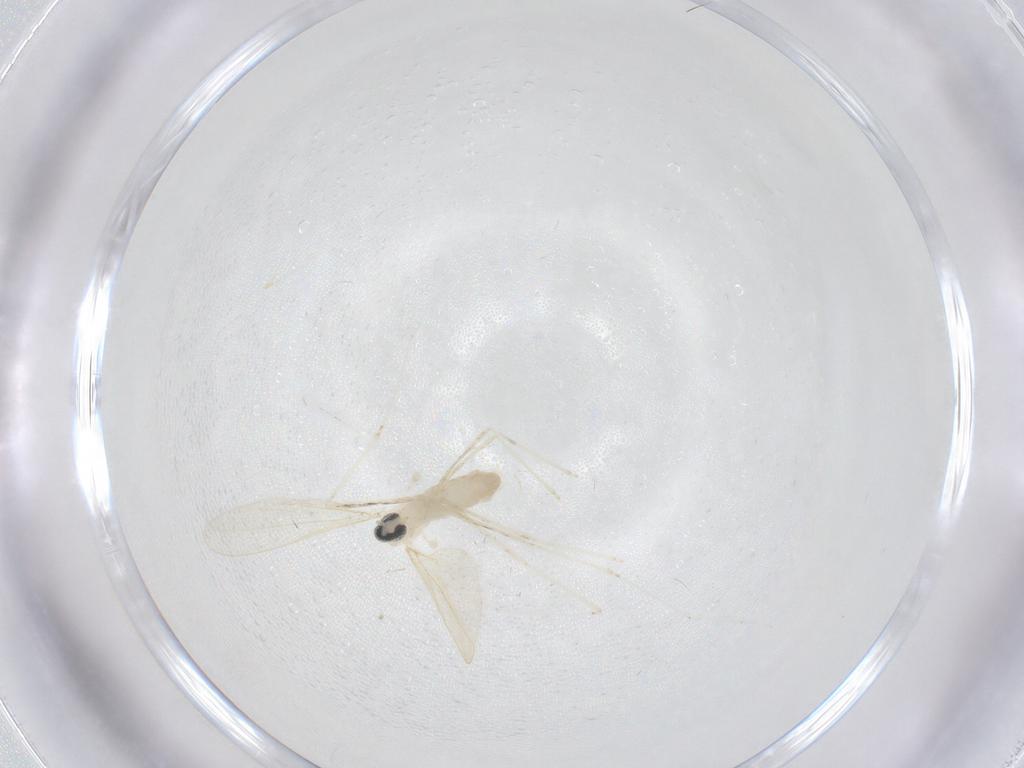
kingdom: Animalia
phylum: Arthropoda
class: Insecta
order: Diptera
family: Cecidomyiidae
